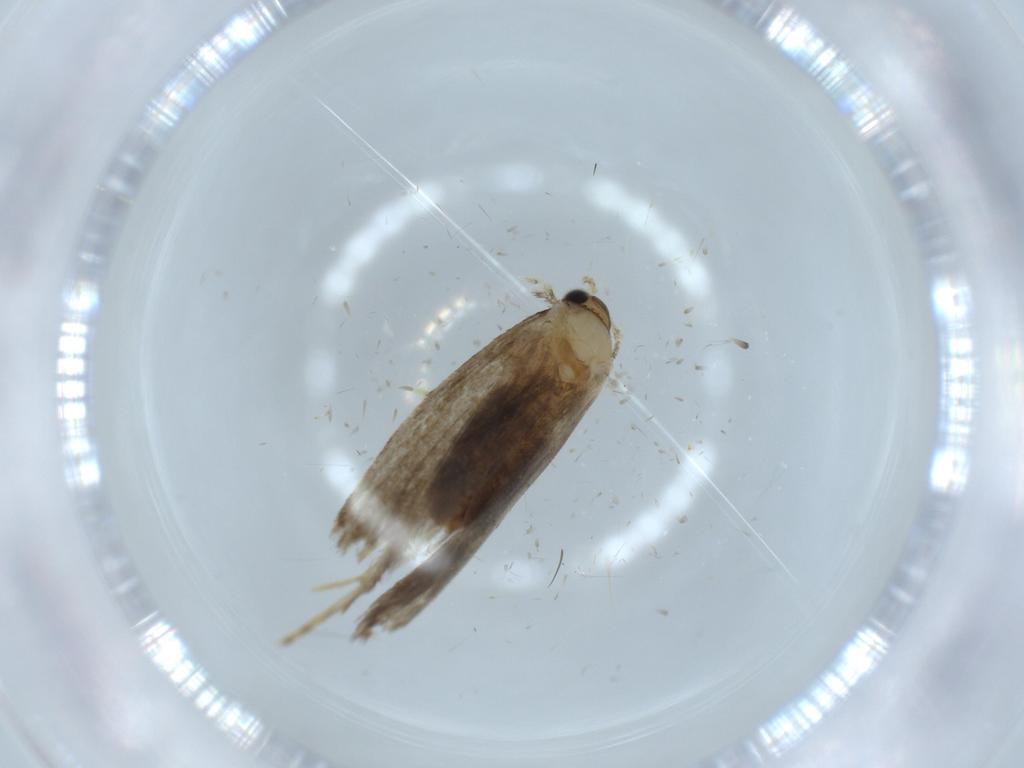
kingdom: Animalia
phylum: Arthropoda
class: Insecta
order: Lepidoptera
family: Tineidae
